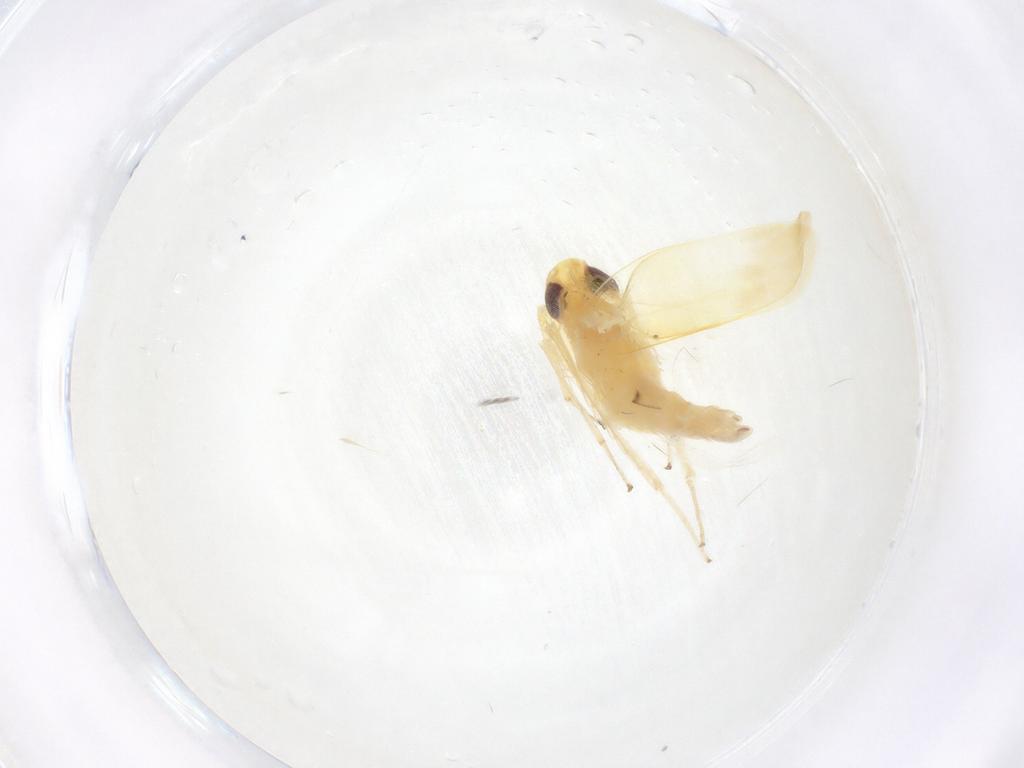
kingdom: Animalia
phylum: Arthropoda
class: Insecta
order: Hemiptera
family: Cicadellidae
